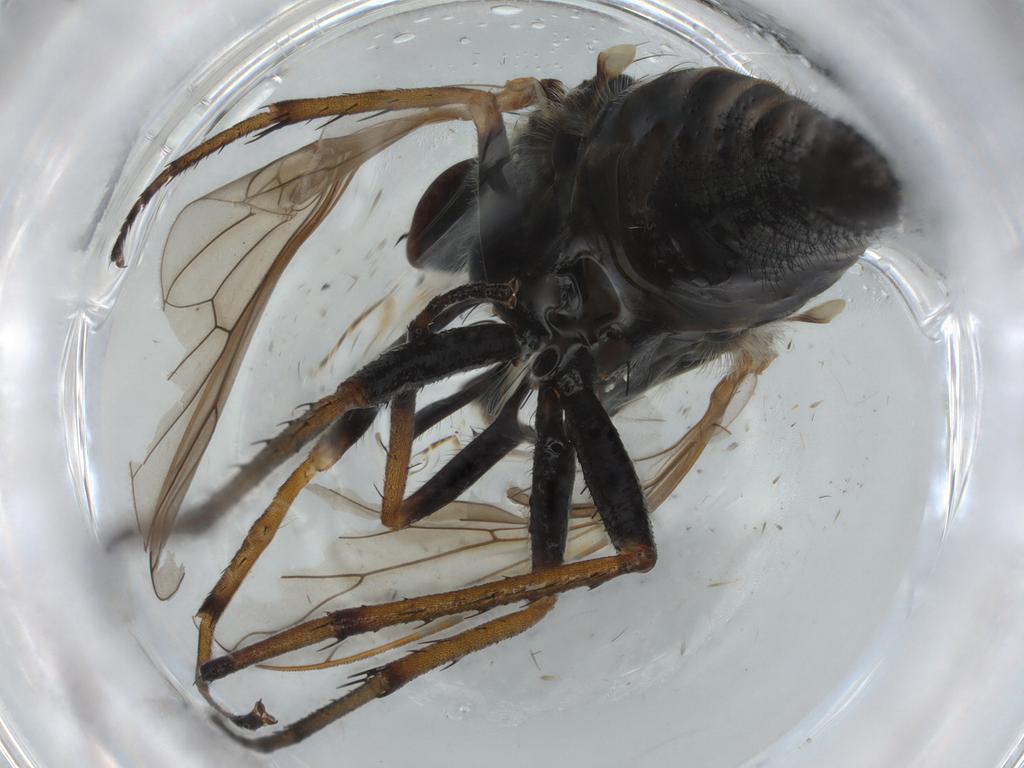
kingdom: Animalia
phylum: Arthropoda
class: Insecta
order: Diptera
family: Therevidae
